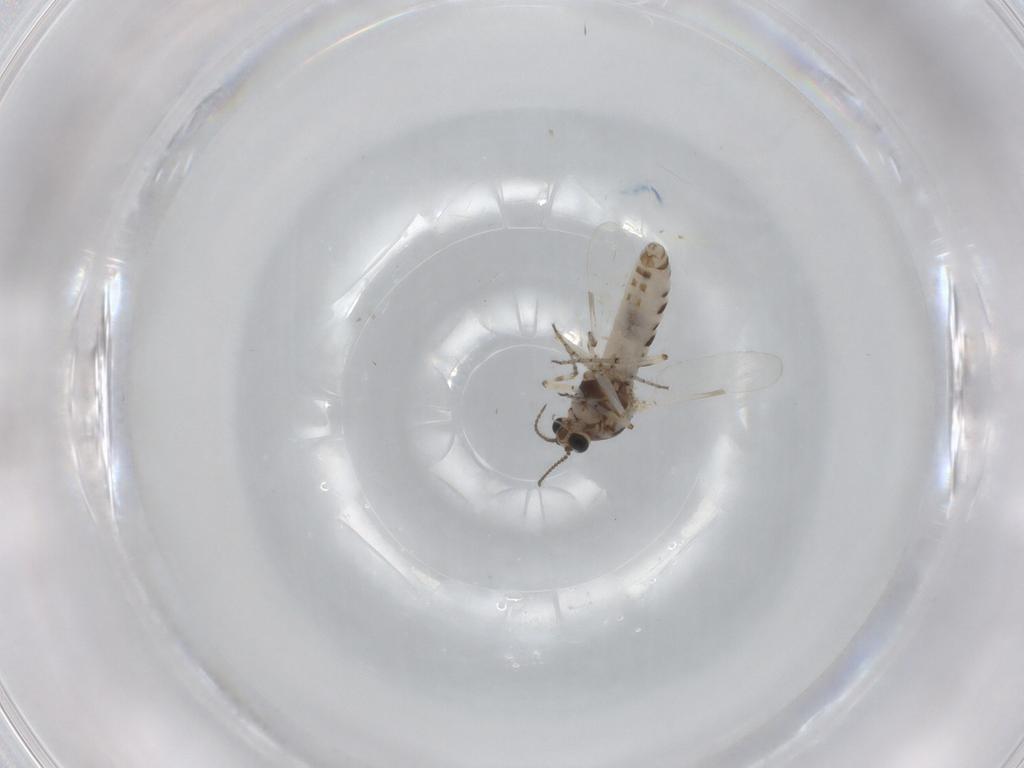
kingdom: Animalia
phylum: Arthropoda
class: Insecta
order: Diptera
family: Ceratopogonidae
